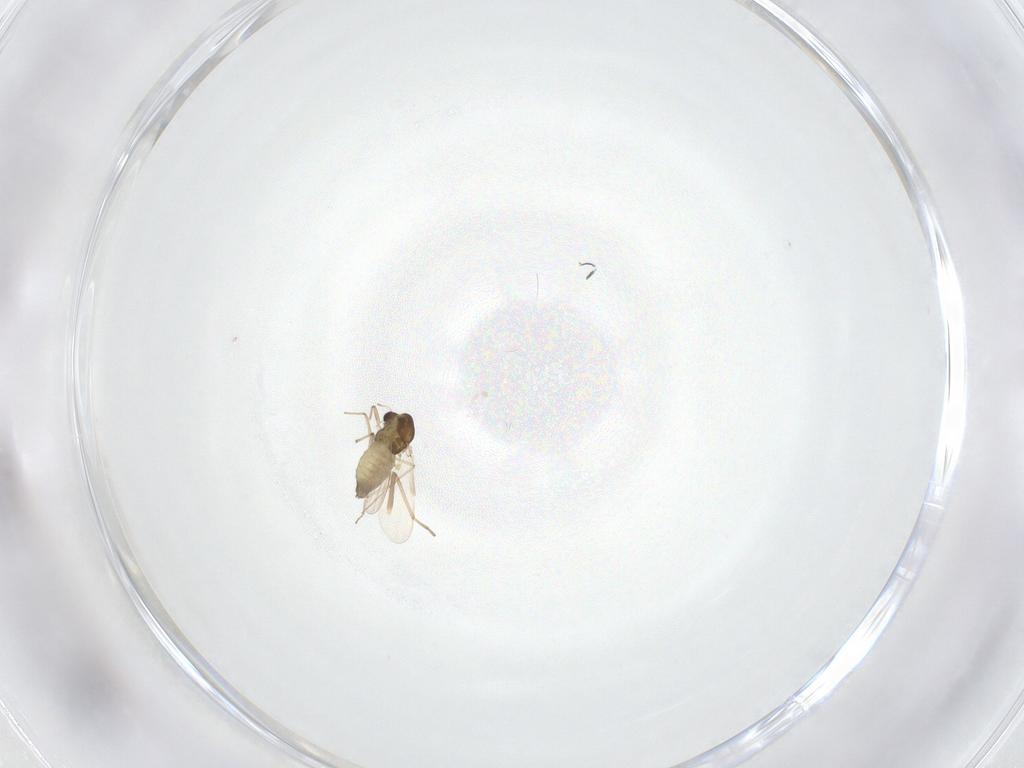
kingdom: Animalia
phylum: Arthropoda
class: Insecta
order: Diptera
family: Chironomidae
